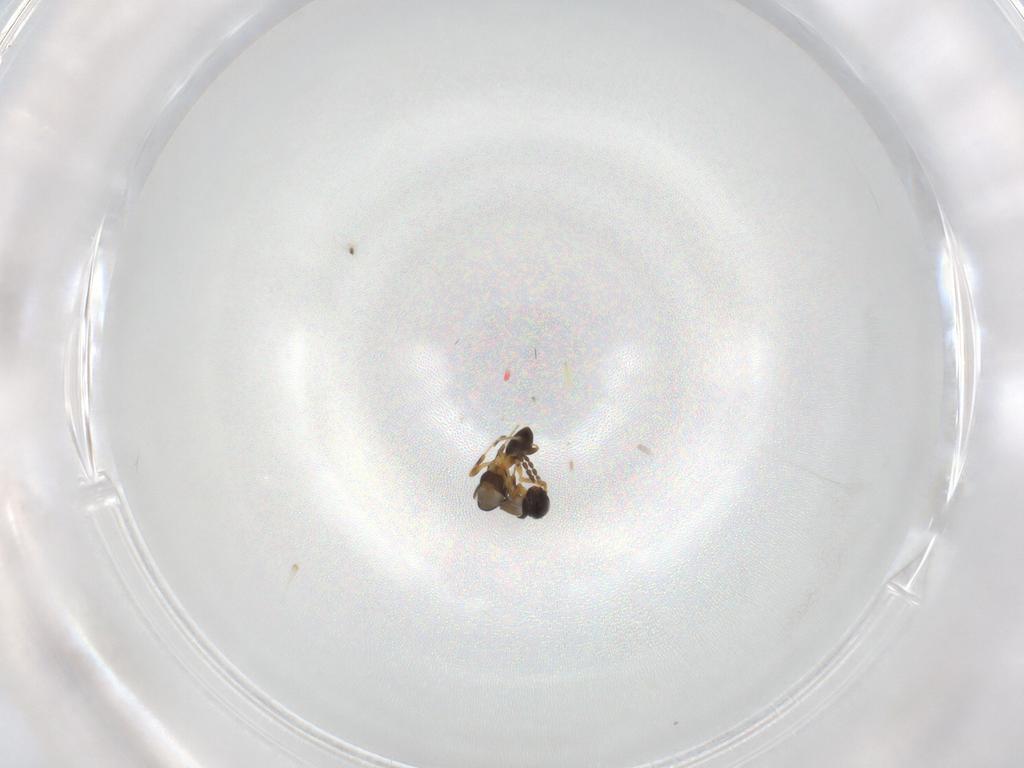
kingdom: Animalia
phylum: Arthropoda
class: Insecta
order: Hymenoptera
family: Platygastridae
